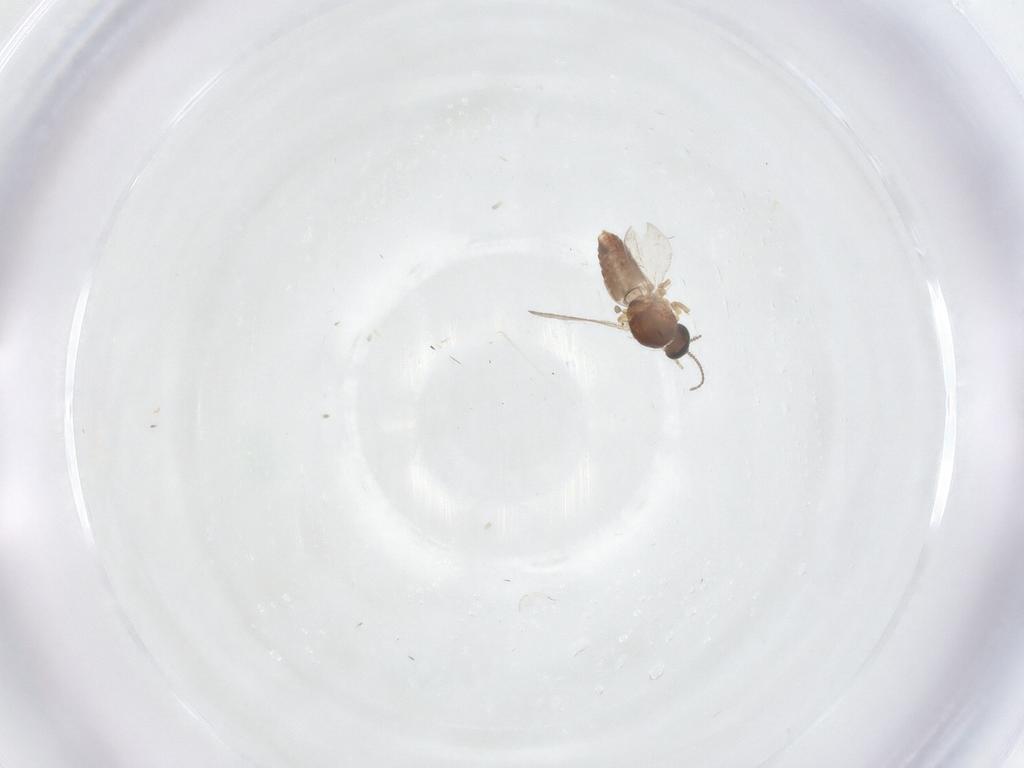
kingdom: Animalia
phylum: Arthropoda
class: Insecta
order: Diptera
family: Cecidomyiidae
